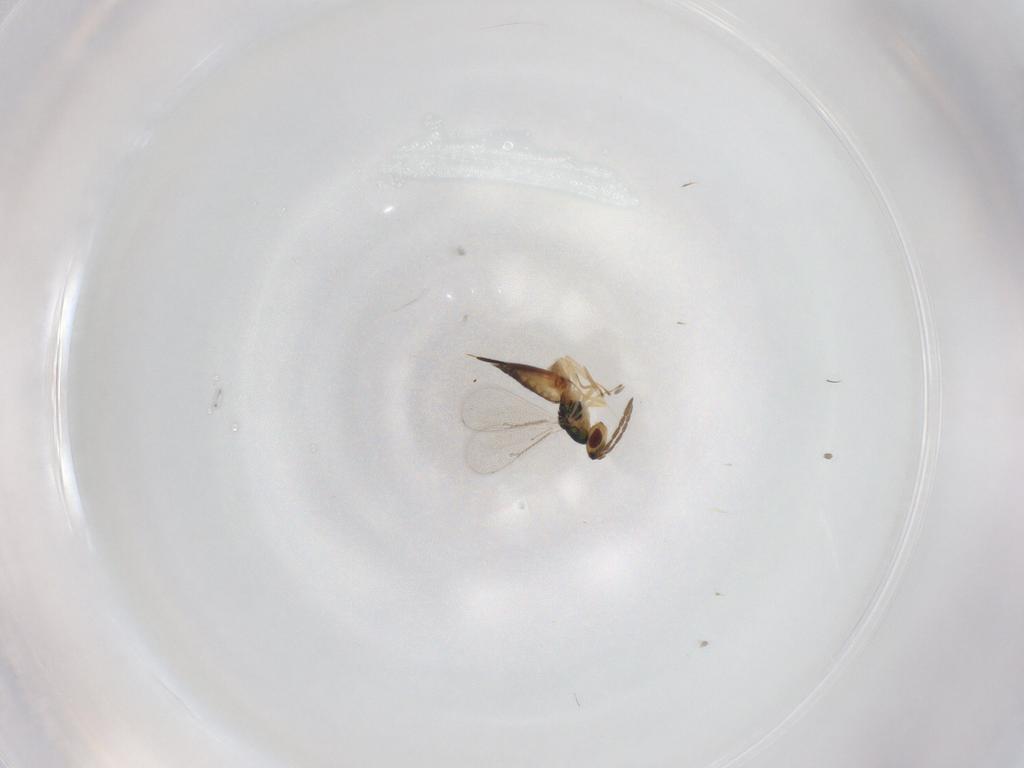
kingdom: Animalia
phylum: Arthropoda
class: Insecta
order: Hymenoptera
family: Eulophidae
